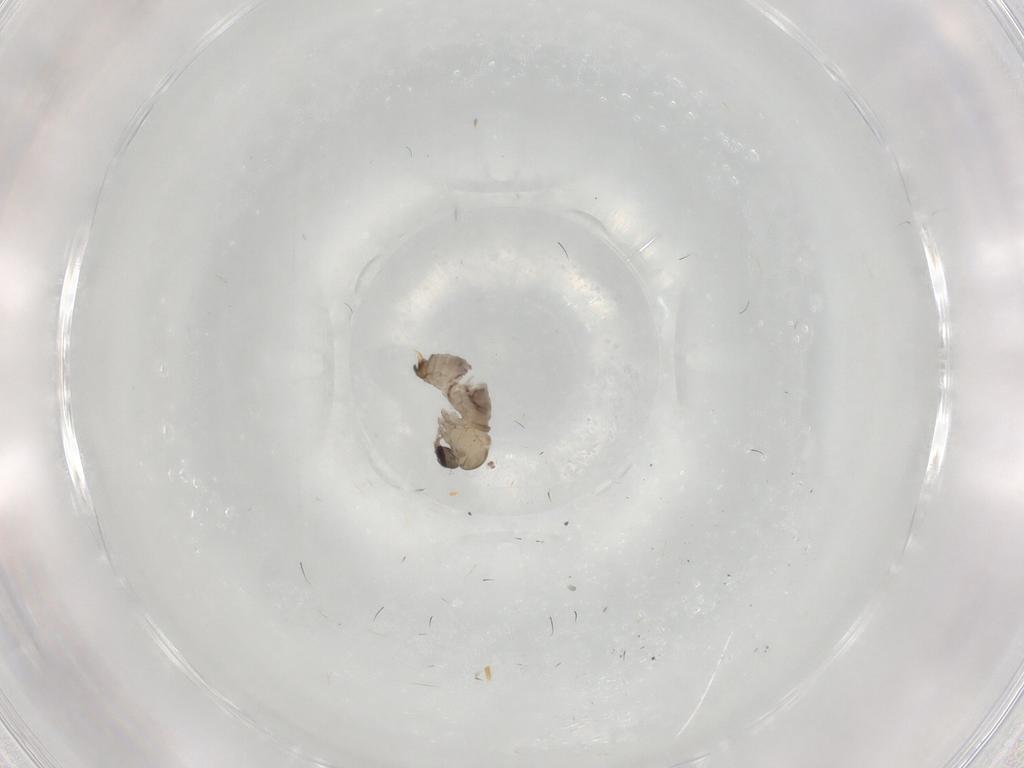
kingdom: Animalia
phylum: Arthropoda
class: Insecta
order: Diptera
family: Psychodidae
